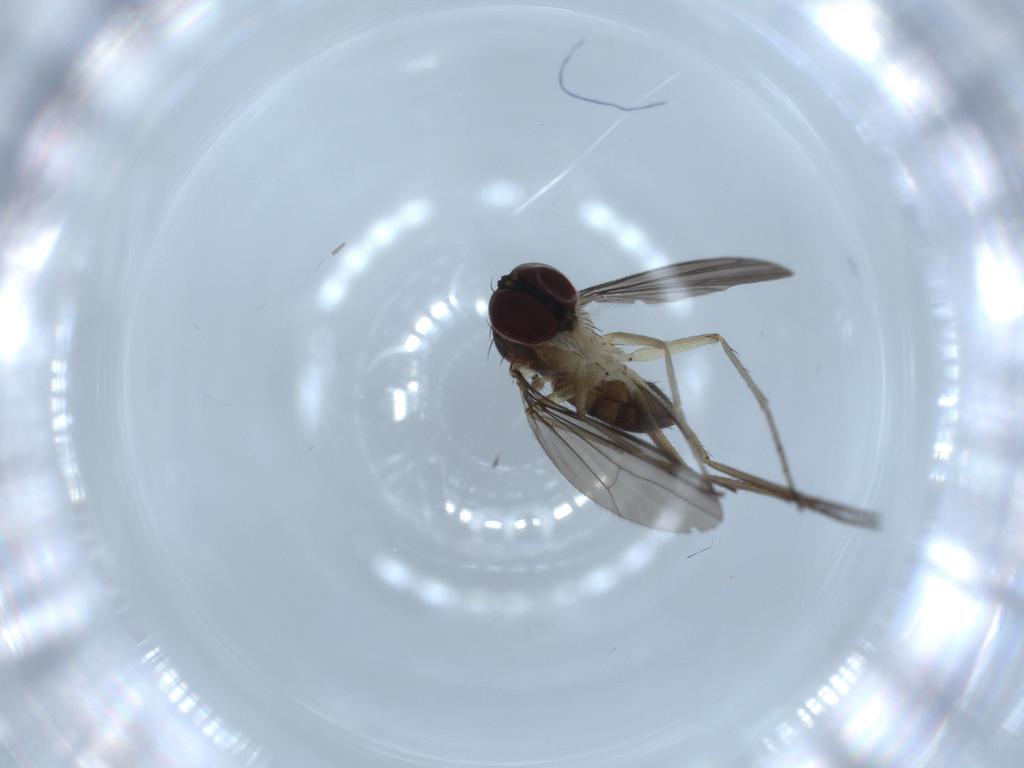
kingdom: Animalia
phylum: Arthropoda
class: Insecta
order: Diptera
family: Dolichopodidae
